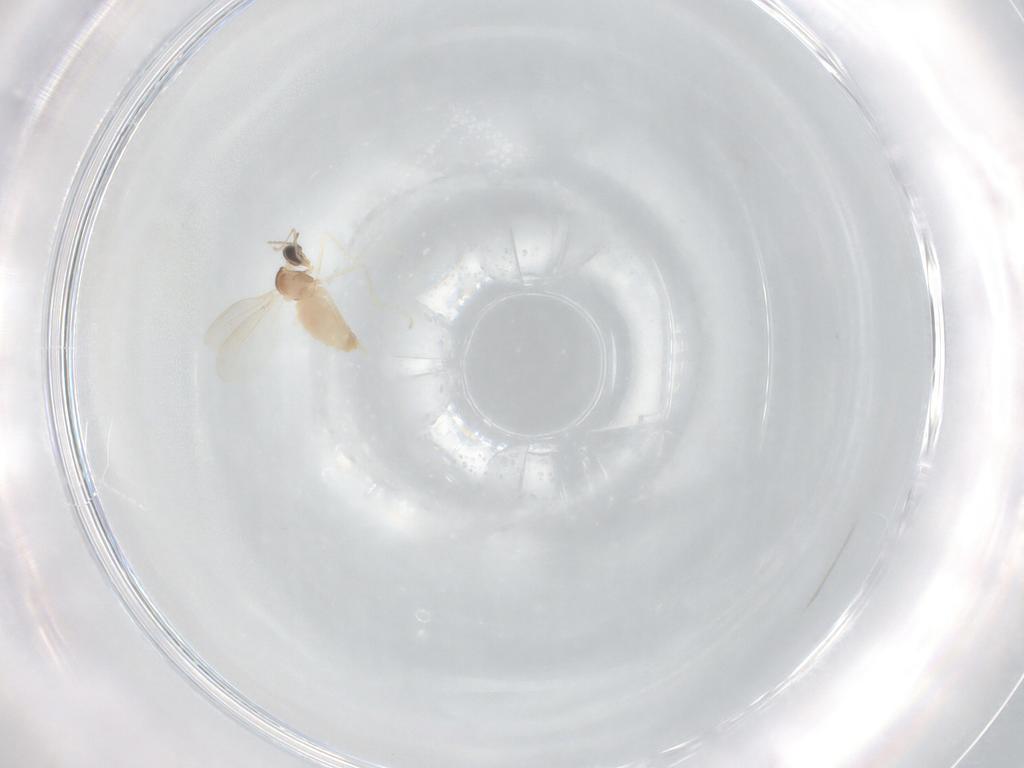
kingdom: Animalia
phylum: Arthropoda
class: Insecta
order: Diptera
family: Cecidomyiidae
